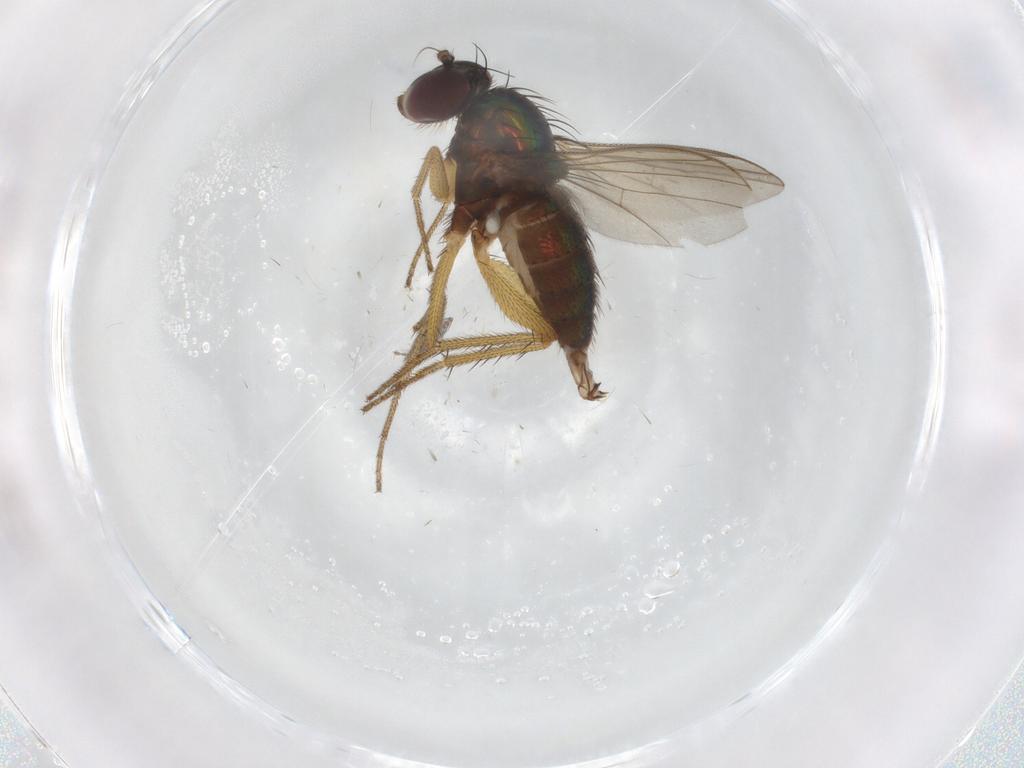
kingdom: Animalia
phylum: Arthropoda
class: Insecta
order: Diptera
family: Ceratopogonidae
